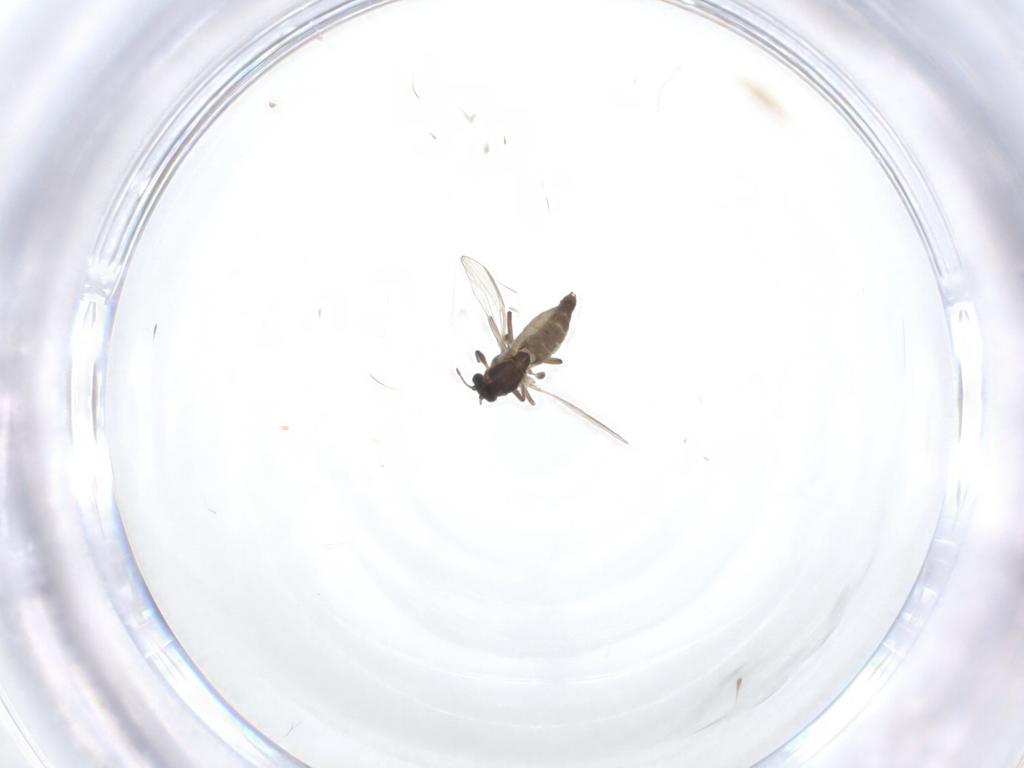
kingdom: Animalia
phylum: Arthropoda
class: Insecta
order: Diptera
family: Chironomidae
